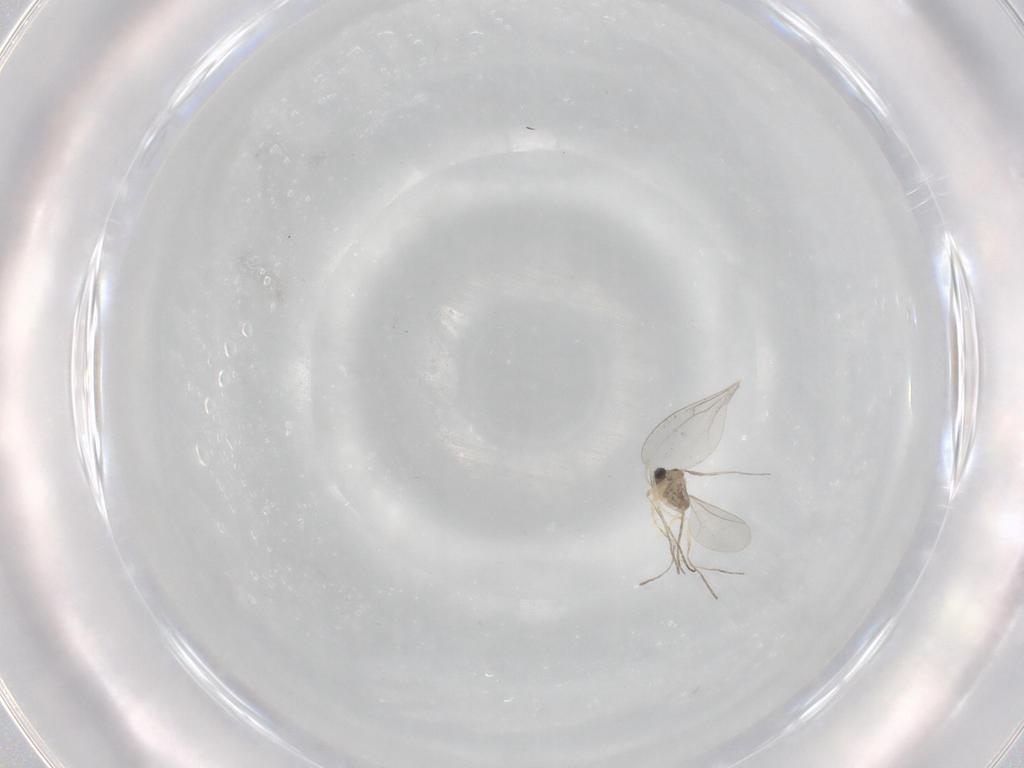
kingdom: Animalia
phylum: Arthropoda
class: Insecta
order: Diptera
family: Cecidomyiidae
